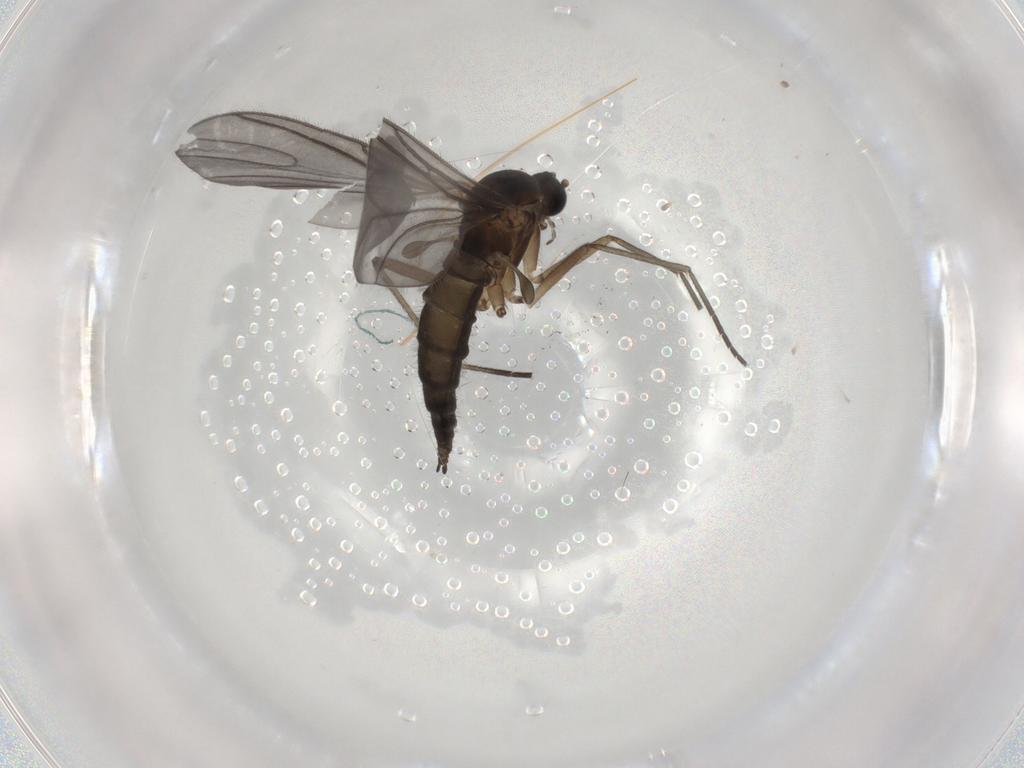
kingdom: Animalia
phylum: Arthropoda
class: Insecta
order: Diptera
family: Sciaridae
